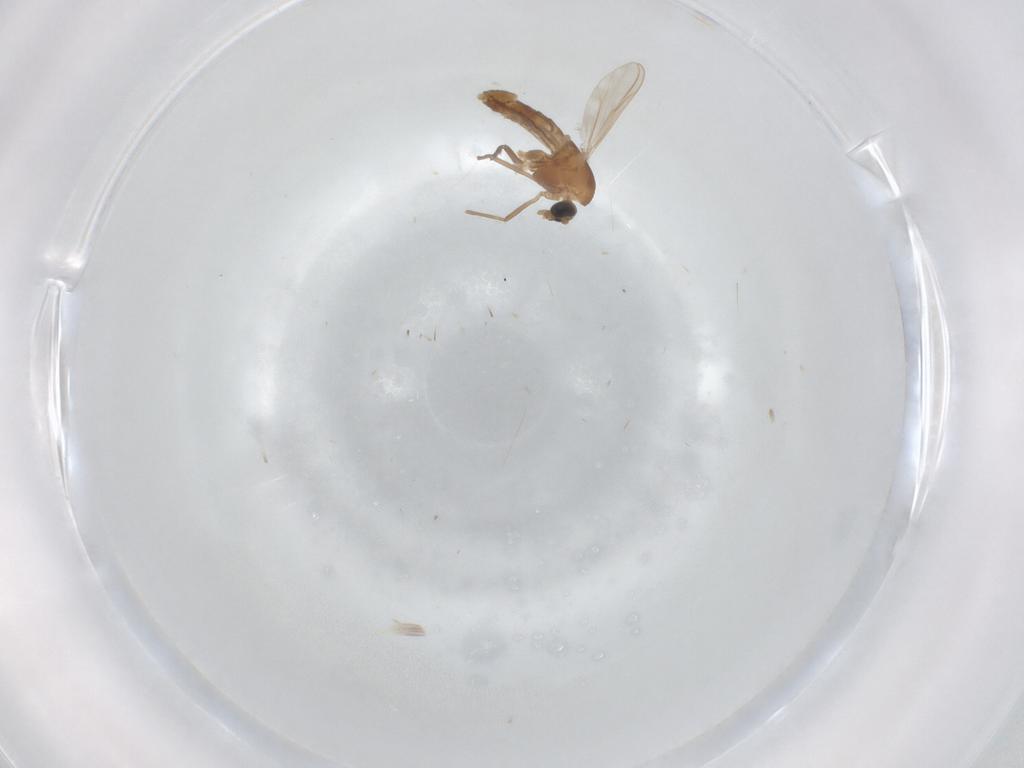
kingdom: Animalia
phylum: Arthropoda
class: Insecta
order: Diptera
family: Chironomidae
